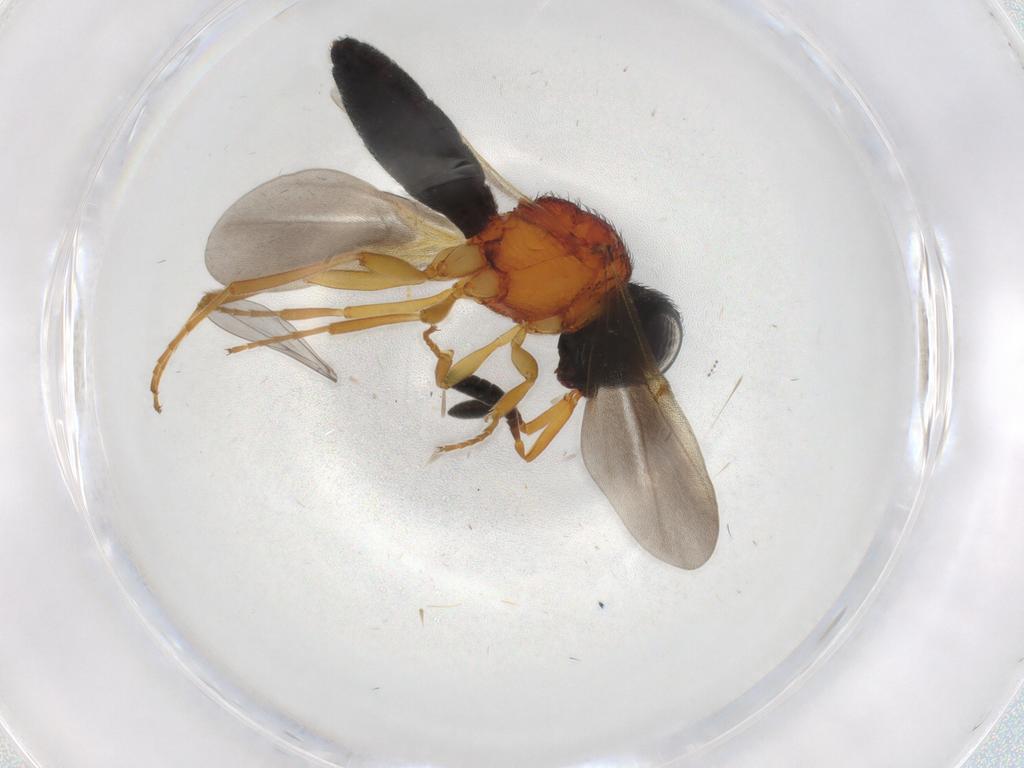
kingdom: Animalia
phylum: Arthropoda
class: Insecta
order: Hymenoptera
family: Scelionidae
